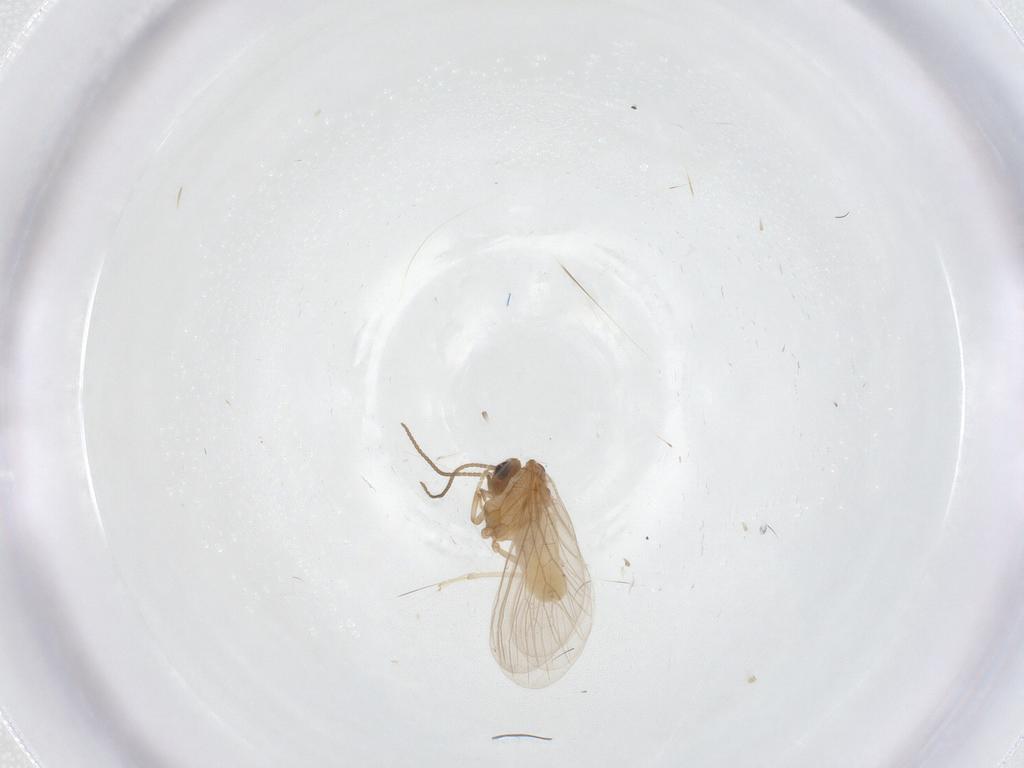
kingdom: Animalia
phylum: Arthropoda
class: Insecta
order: Neuroptera
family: Coniopterygidae
